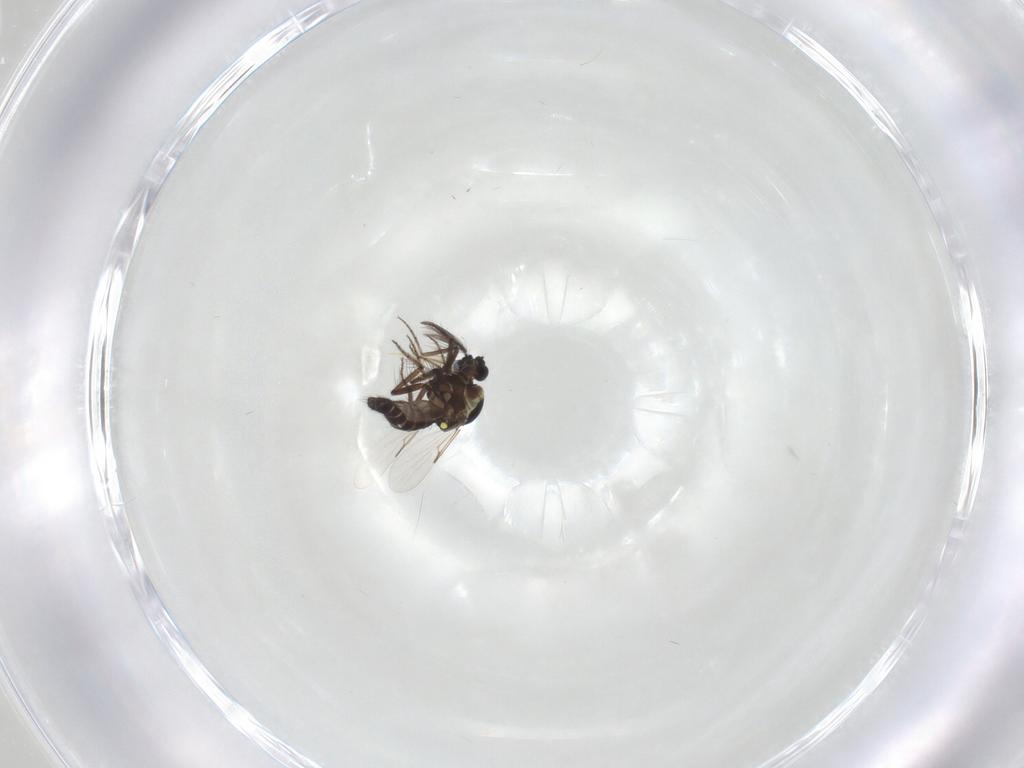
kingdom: Animalia
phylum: Arthropoda
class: Insecta
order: Diptera
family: Ceratopogonidae
